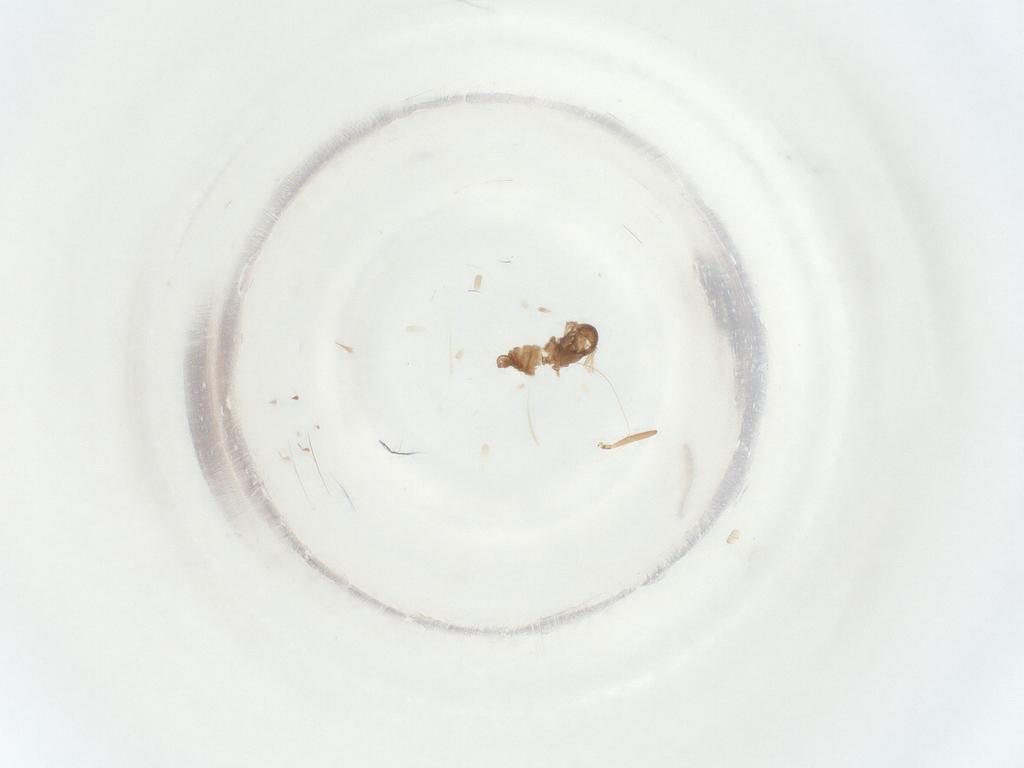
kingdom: Animalia
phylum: Arthropoda
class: Insecta
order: Diptera
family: Sciaridae
